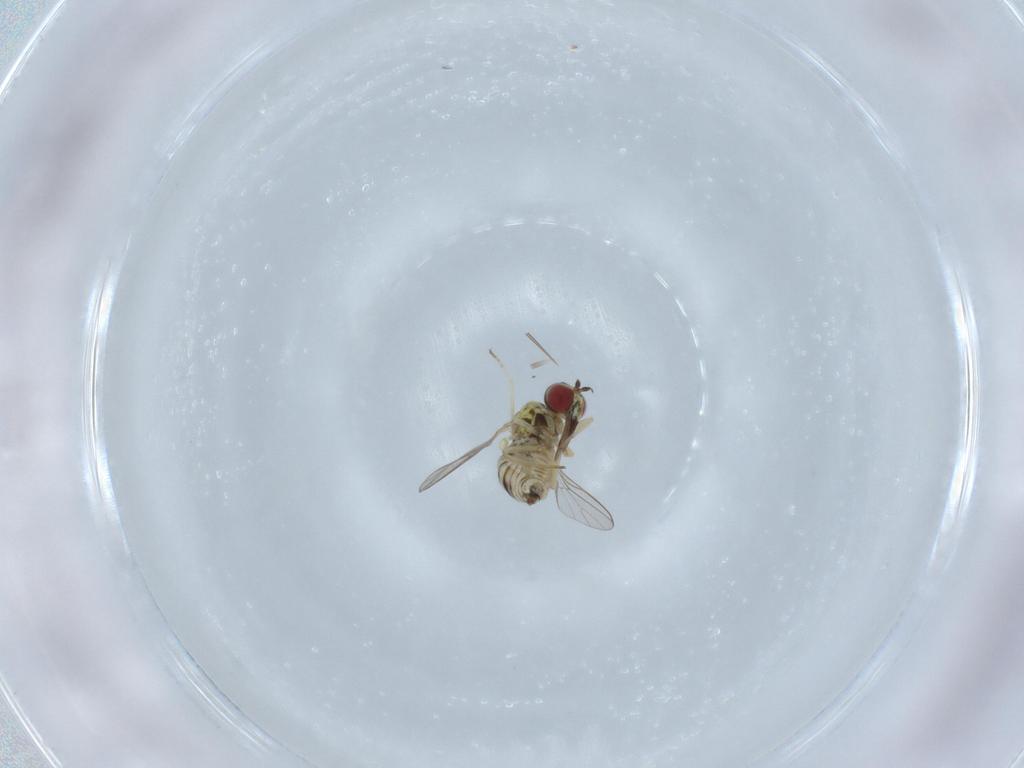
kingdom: Animalia
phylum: Arthropoda
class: Insecta
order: Diptera
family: Bombyliidae
